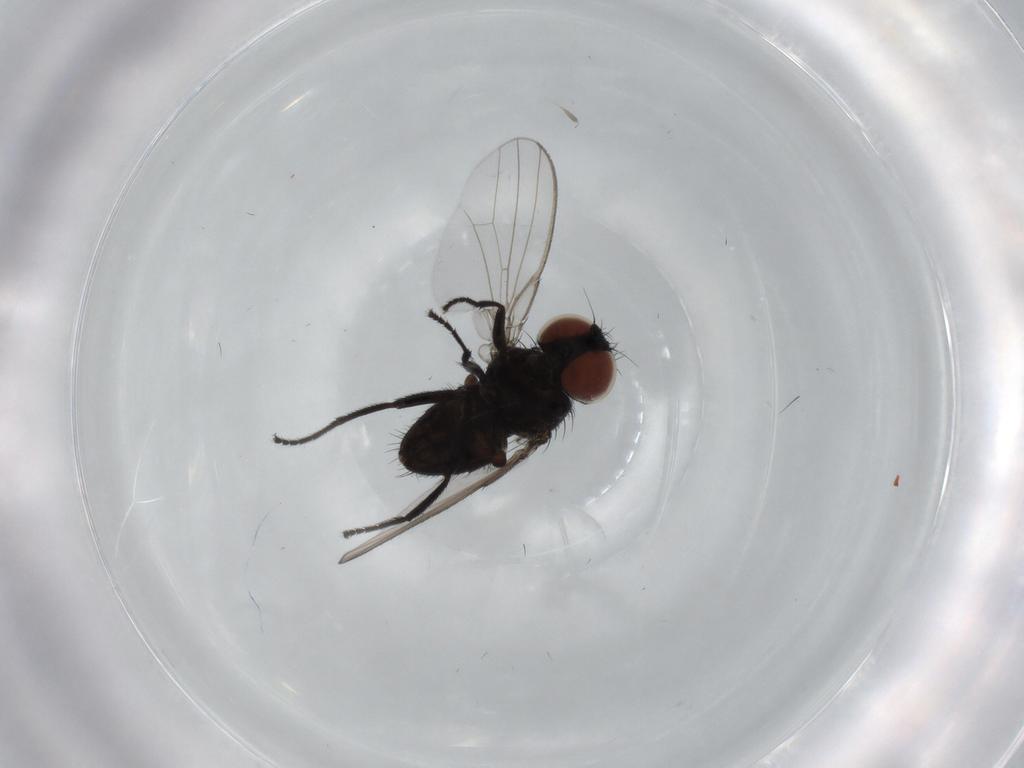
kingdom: Animalia
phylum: Arthropoda
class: Insecta
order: Diptera
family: Milichiidae
